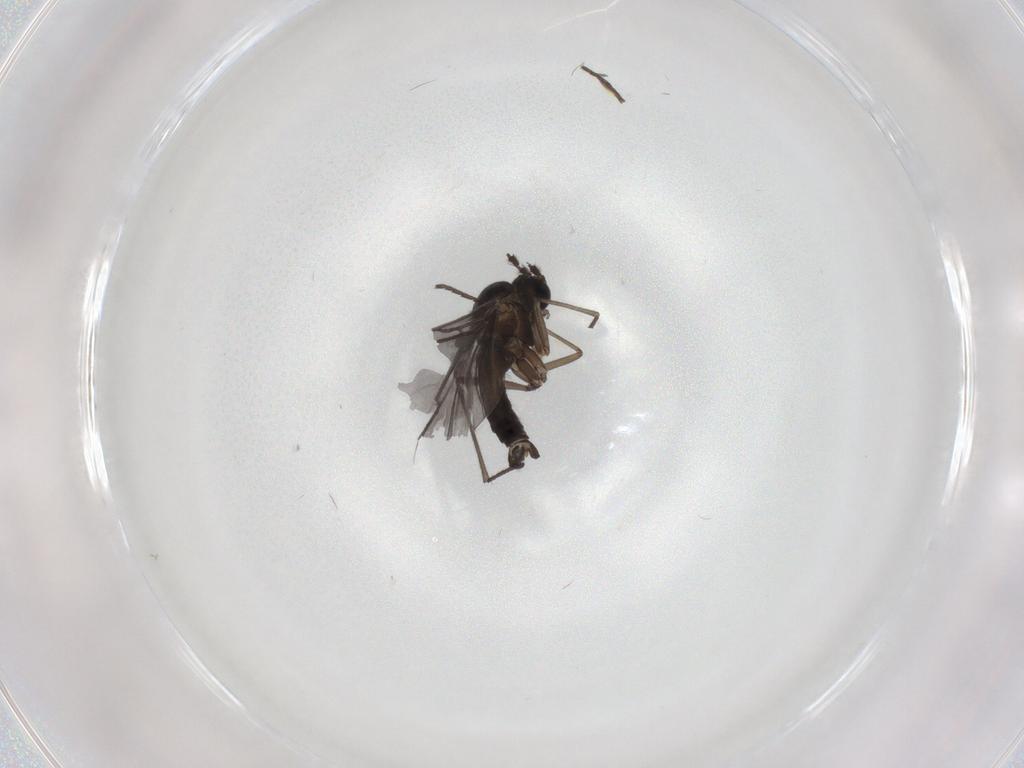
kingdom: Animalia
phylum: Arthropoda
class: Insecta
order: Diptera
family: Sciaridae
